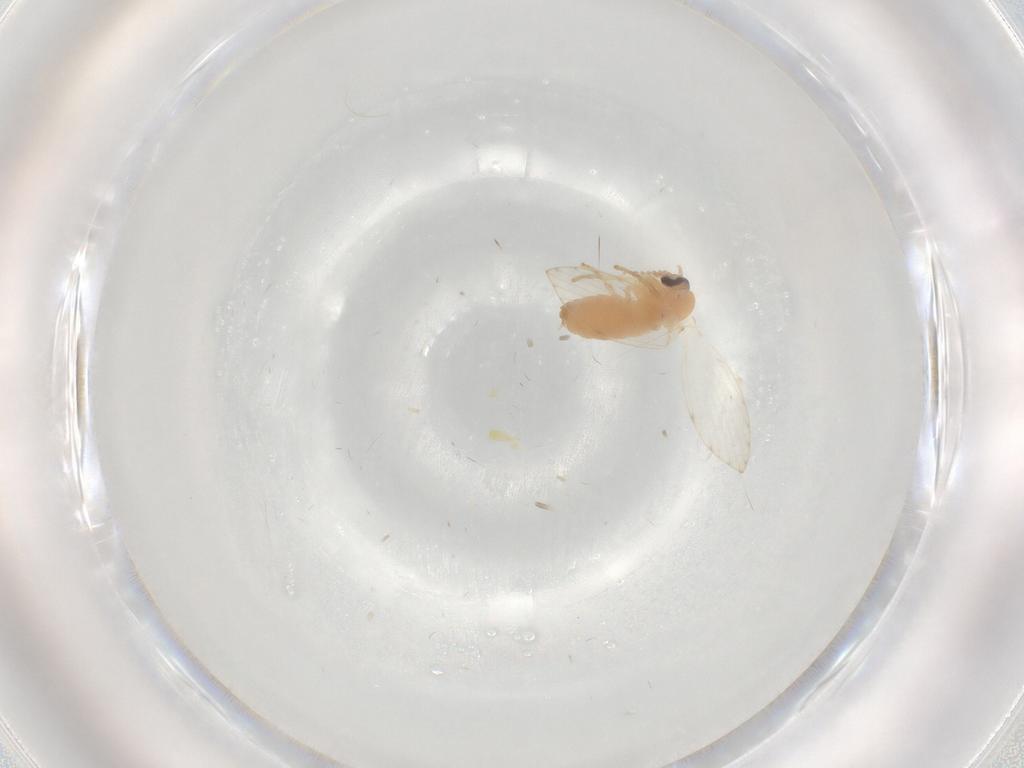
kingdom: Animalia
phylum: Arthropoda
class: Insecta
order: Diptera
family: Psychodidae
